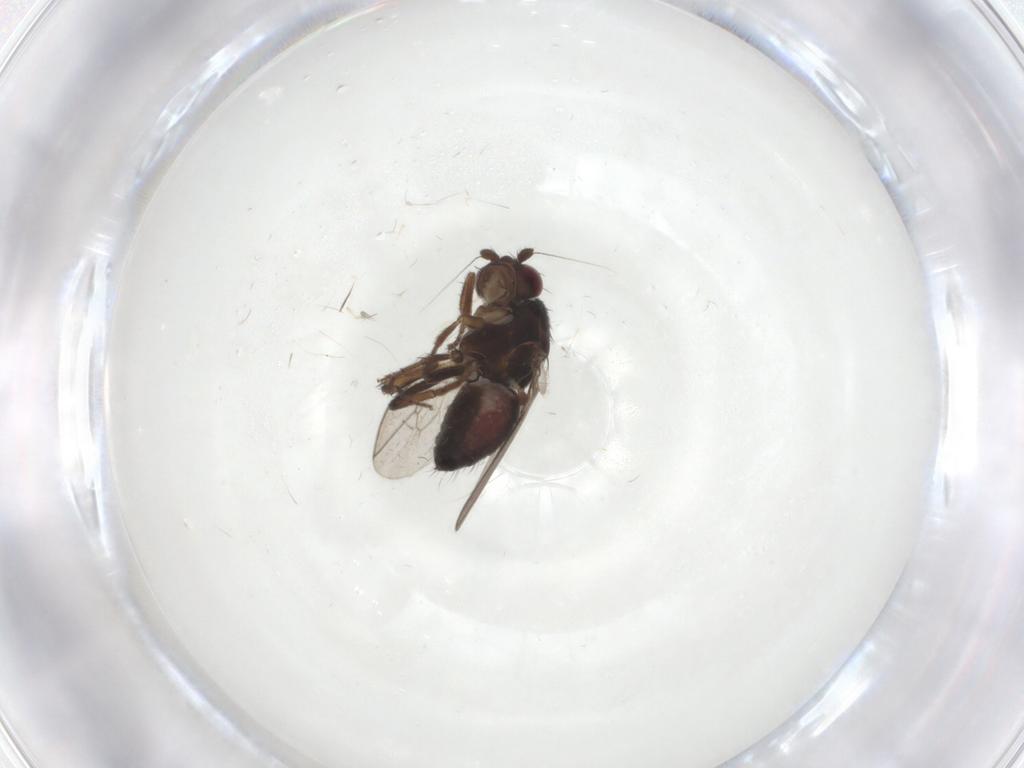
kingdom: Animalia
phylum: Arthropoda
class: Insecta
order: Diptera
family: Sphaeroceridae
